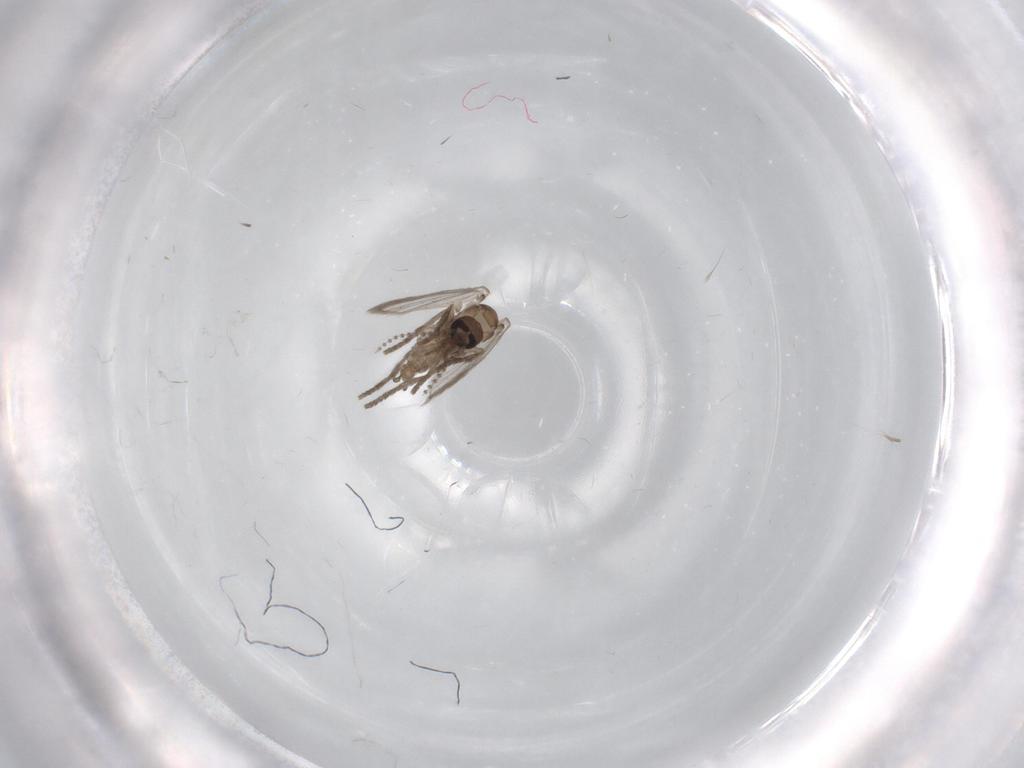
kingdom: Animalia
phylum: Arthropoda
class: Insecta
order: Diptera
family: Psychodidae
